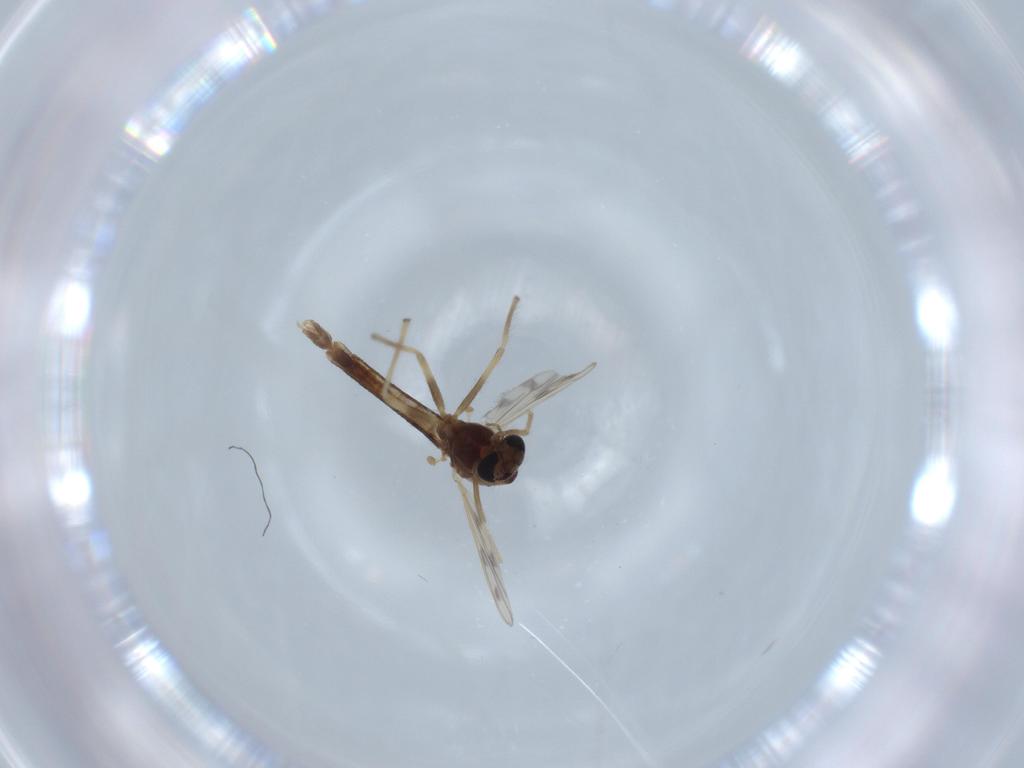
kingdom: Animalia
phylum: Arthropoda
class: Insecta
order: Diptera
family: Chironomidae
